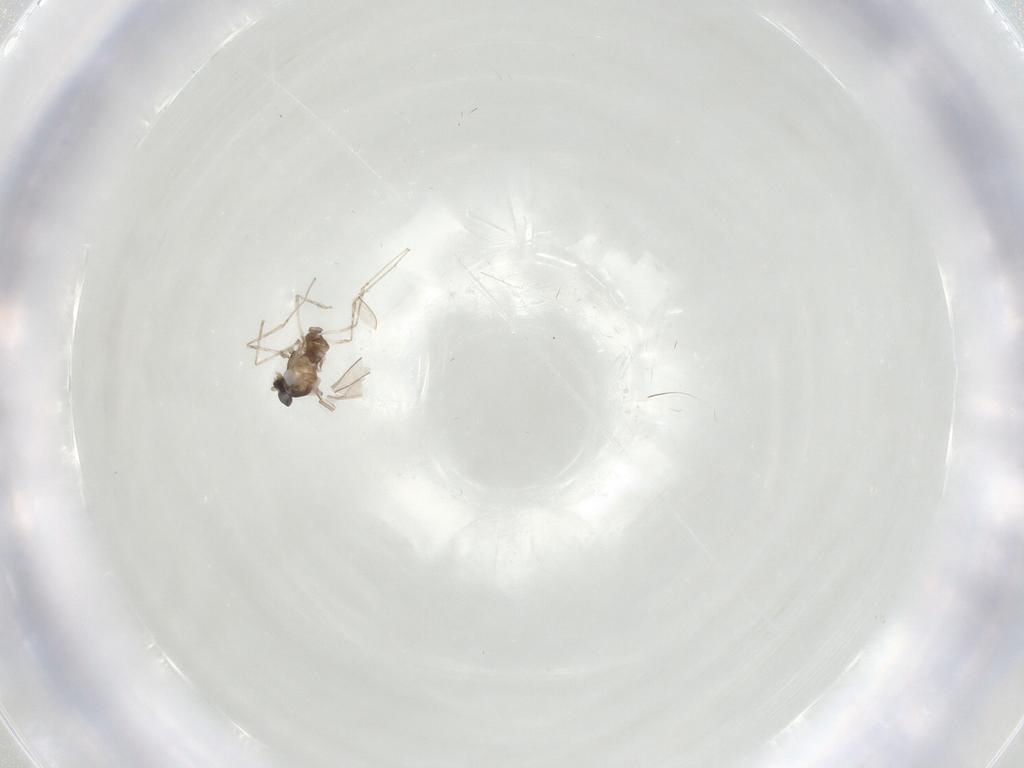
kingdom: Animalia
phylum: Arthropoda
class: Insecta
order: Diptera
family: Cecidomyiidae
